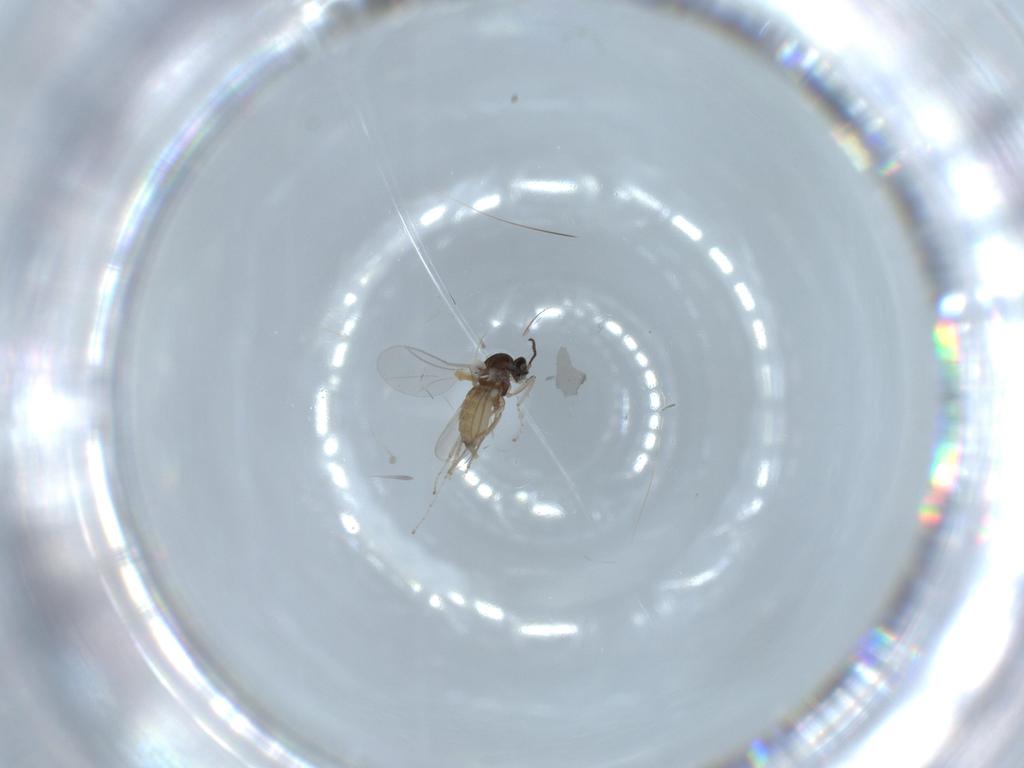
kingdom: Animalia
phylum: Arthropoda
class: Insecta
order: Diptera
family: Cecidomyiidae
